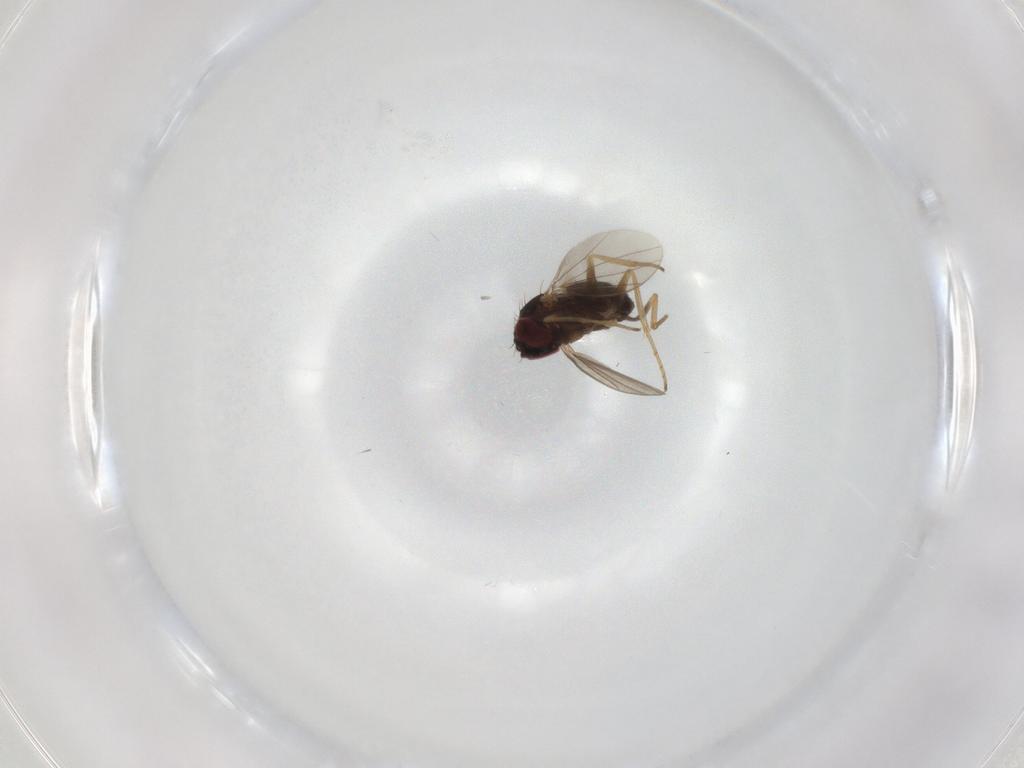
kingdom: Animalia
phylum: Arthropoda
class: Insecta
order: Diptera
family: Dolichopodidae
